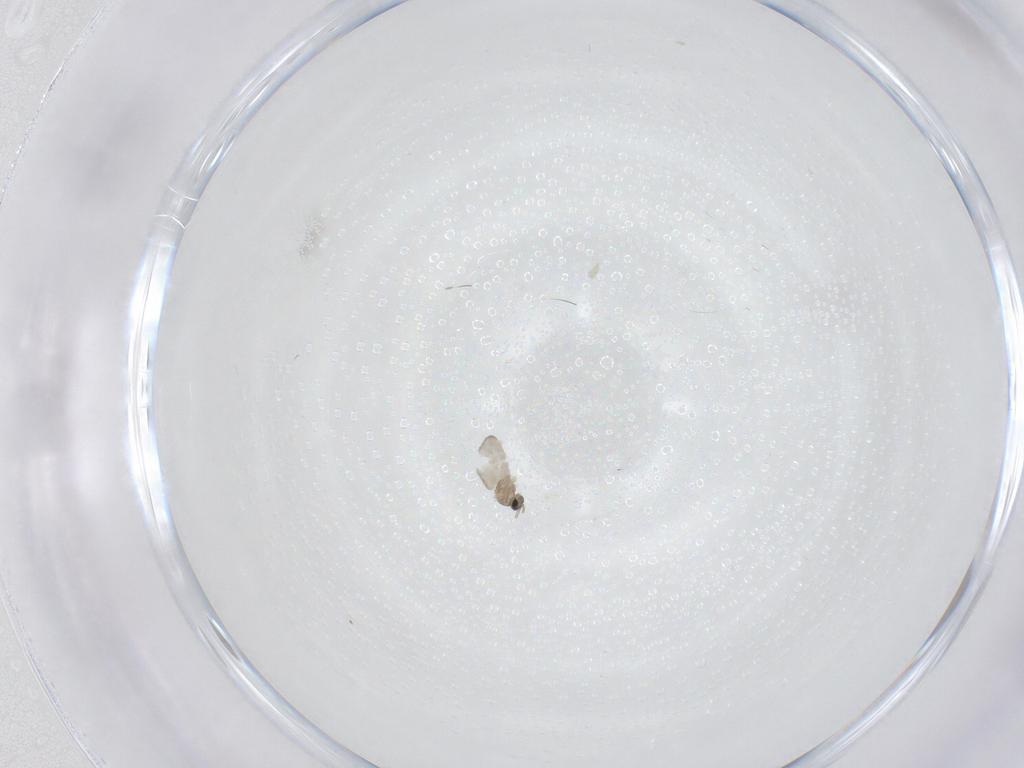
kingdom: Animalia
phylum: Arthropoda
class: Insecta
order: Diptera
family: Cecidomyiidae
